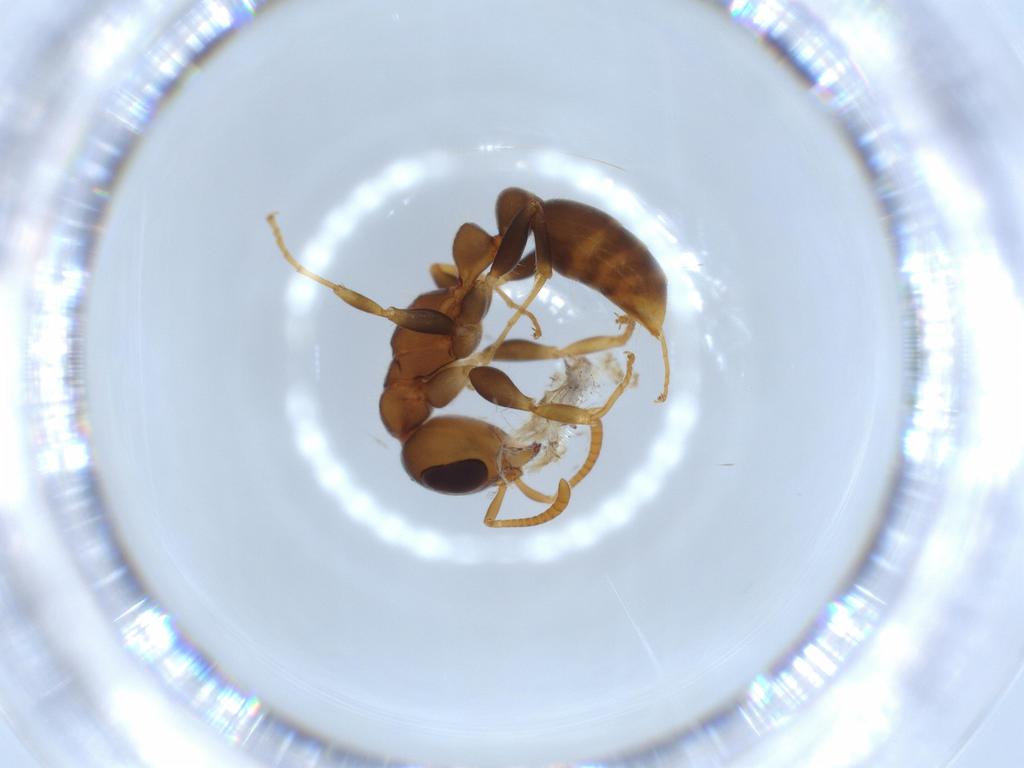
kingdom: Animalia
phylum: Arthropoda
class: Insecta
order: Hymenoptera
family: Formicidae
